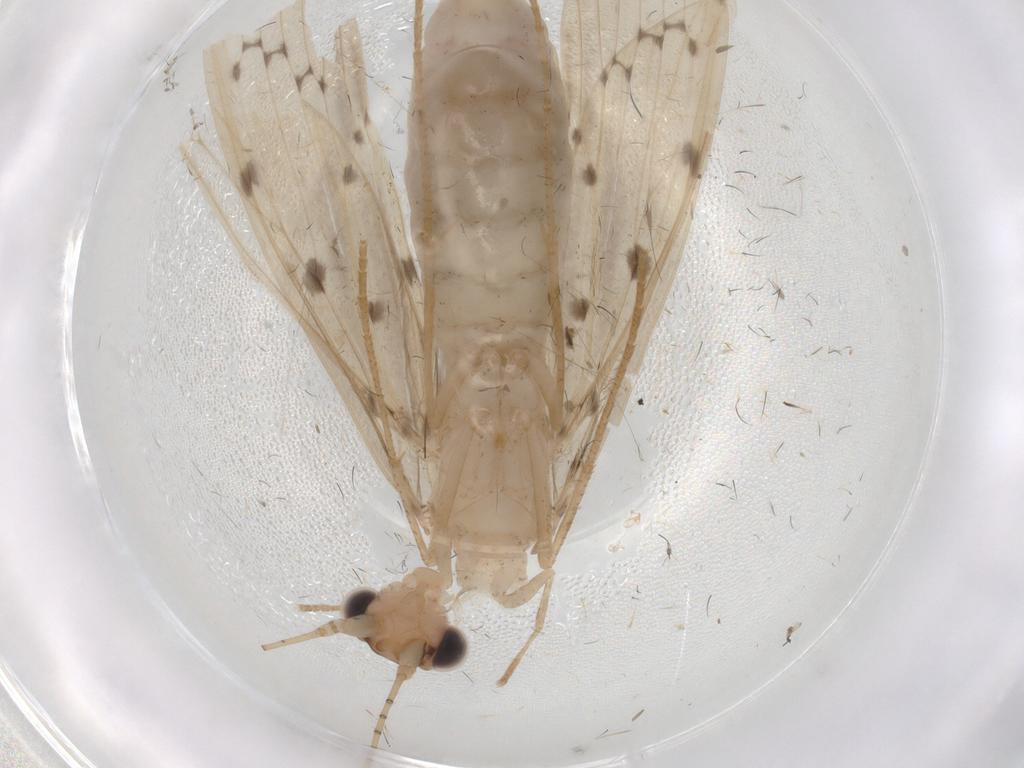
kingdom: Animalia
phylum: Arthropoda
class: Insecta
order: Trichoptera
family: Leptoceridae
